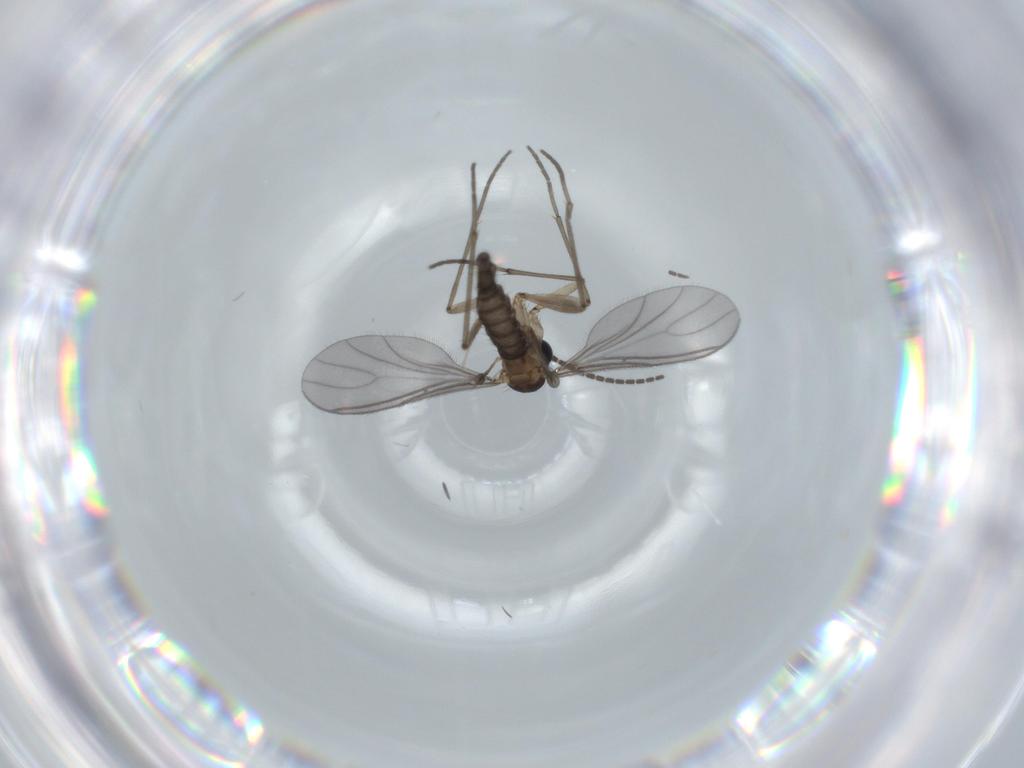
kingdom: Animalia
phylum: Arthropoda
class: Insecta
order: Diptera
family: Sciaridae
